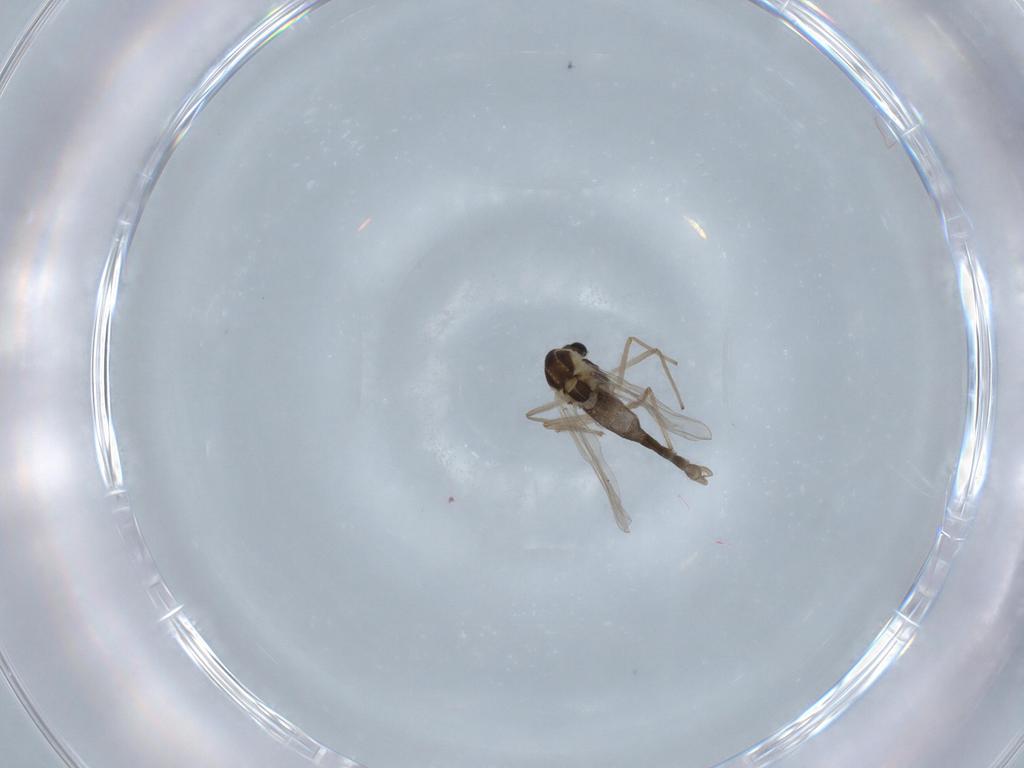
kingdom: Animalia
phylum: Arthropoda
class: Insecta
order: Diptera
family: Chironomidae
